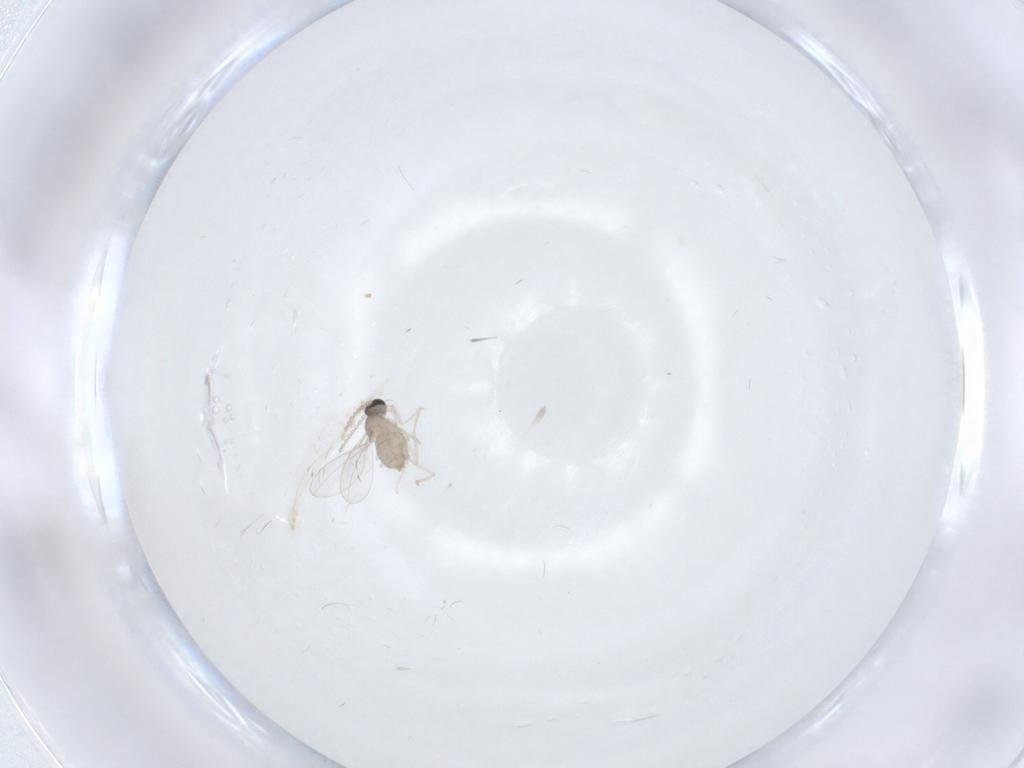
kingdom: Animalia
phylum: Arthropoda
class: Insecta
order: Diptera
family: Cecidomyiidae
